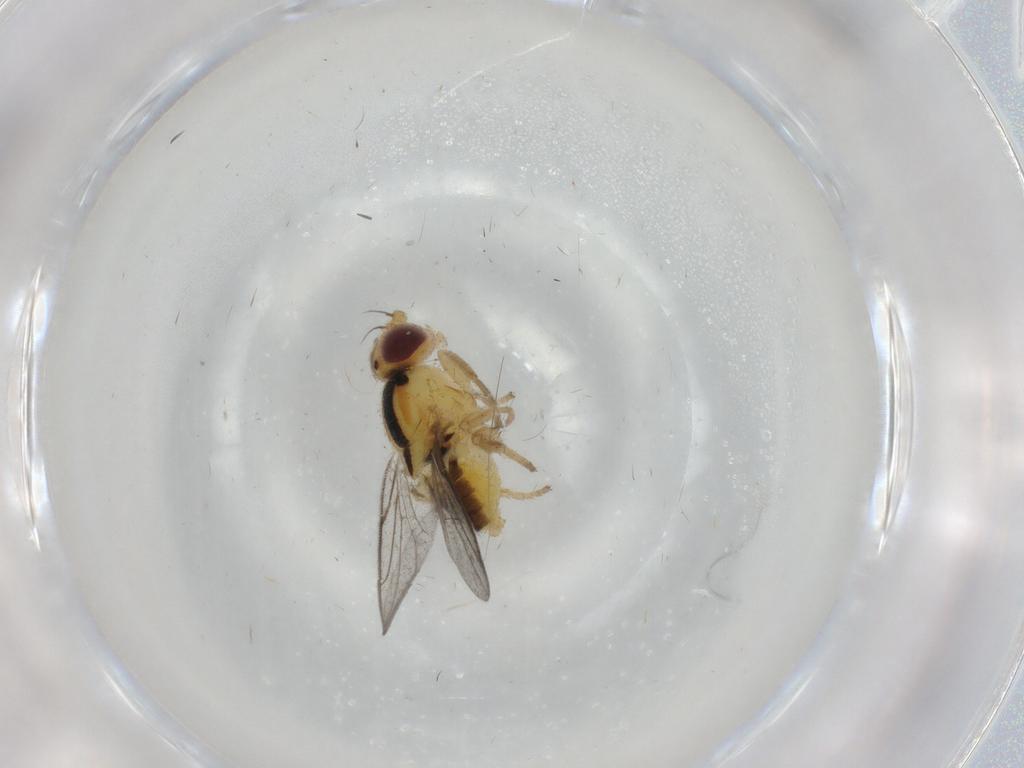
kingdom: Animalia
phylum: Arthropoda
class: Insecta
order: Diptera
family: Chloropidae
